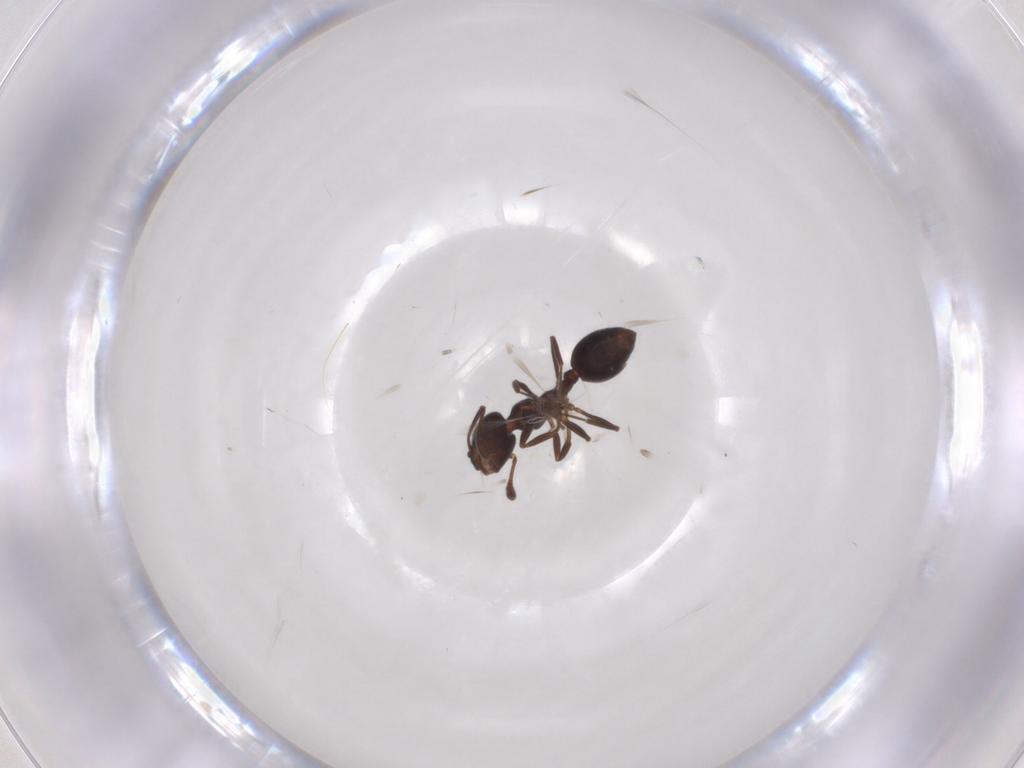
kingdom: Animalia
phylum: Arthropoda
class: Insecta
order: Hymenoptera
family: Formicidae
